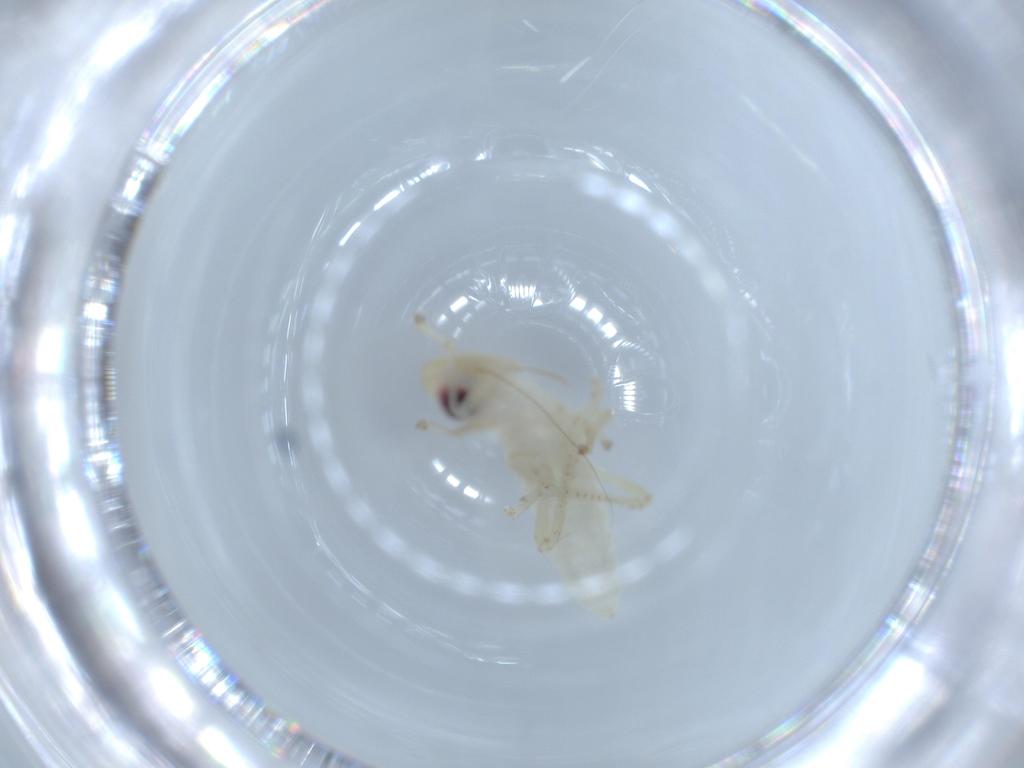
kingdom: Animalia
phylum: Arthropoda
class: Insecta
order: Hemiptera
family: Cicadellidae
